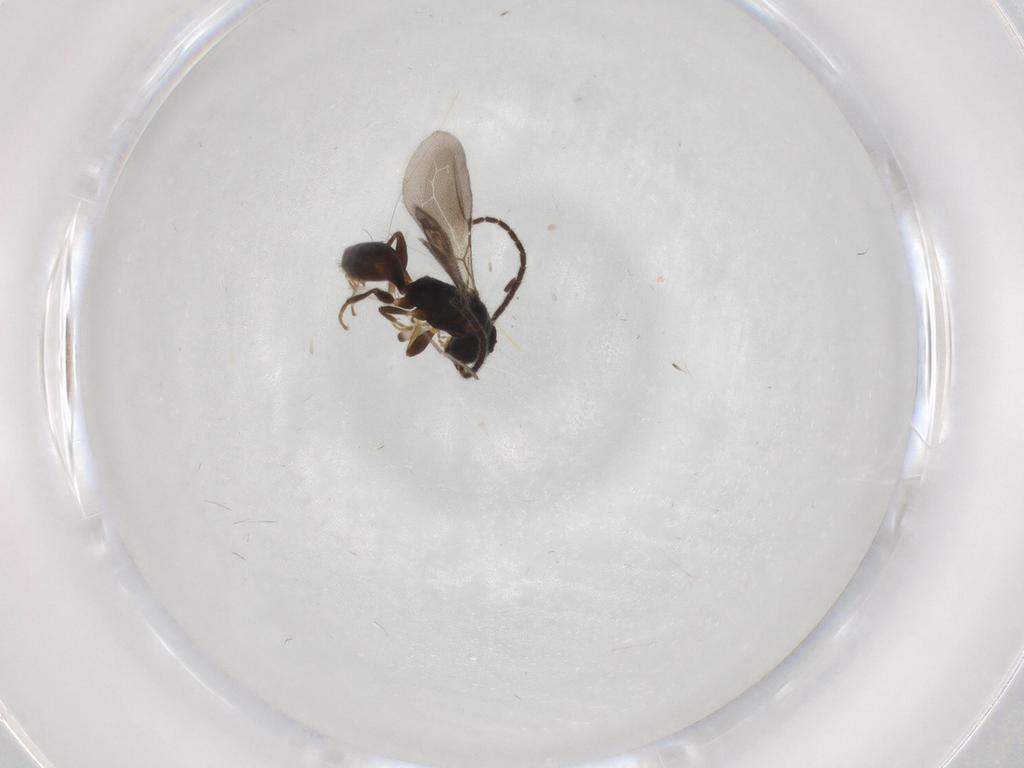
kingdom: Animalia
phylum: Arthropoda
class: Insecta
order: Hymenoptera
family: Bethylidae
